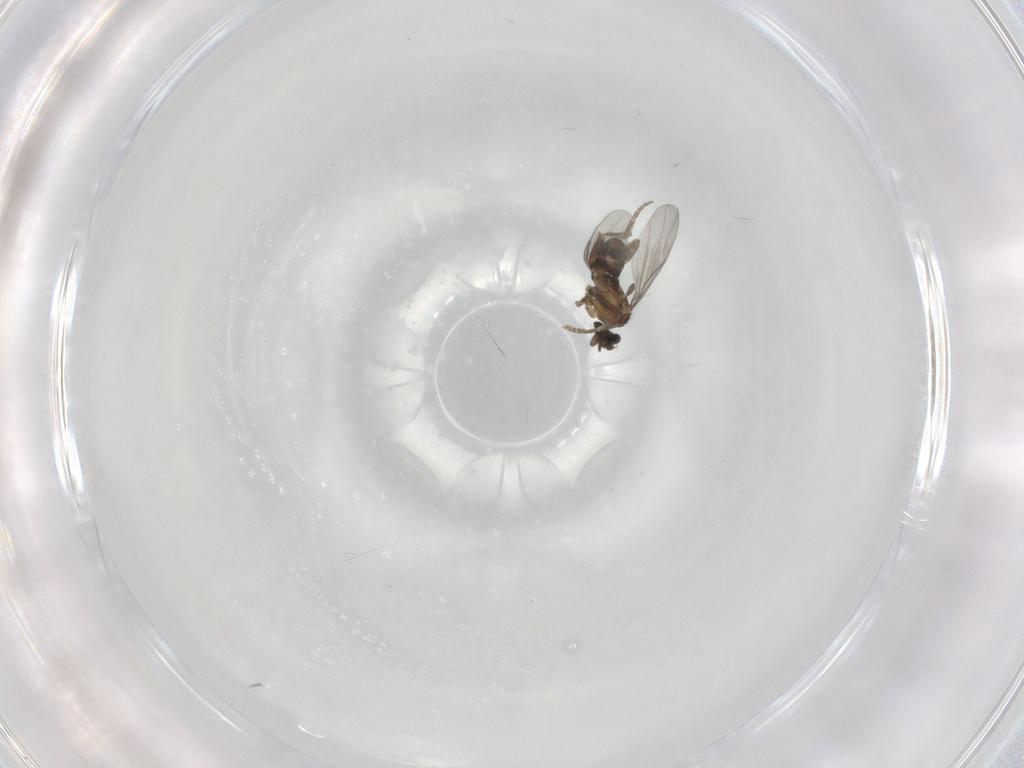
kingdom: Animalia
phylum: Arthropoda
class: Insecta
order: Diptera
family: Phoridae
